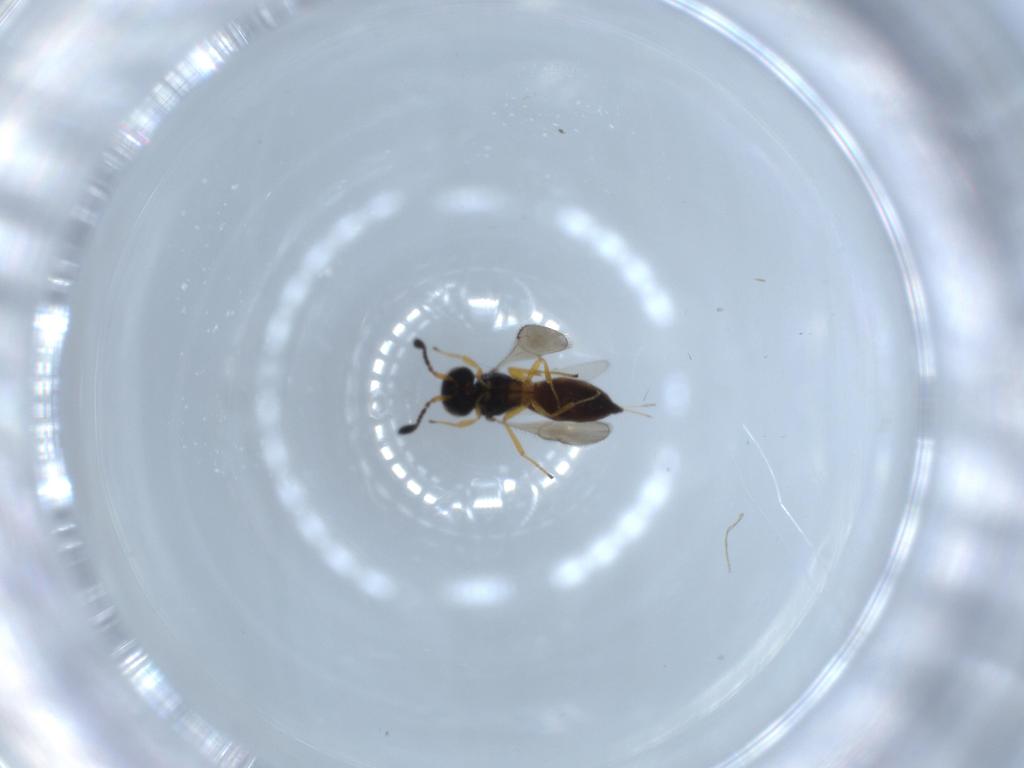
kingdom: Animalia
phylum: Arthropoda
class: Insecta
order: Hymenoptera
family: Scelionidae
